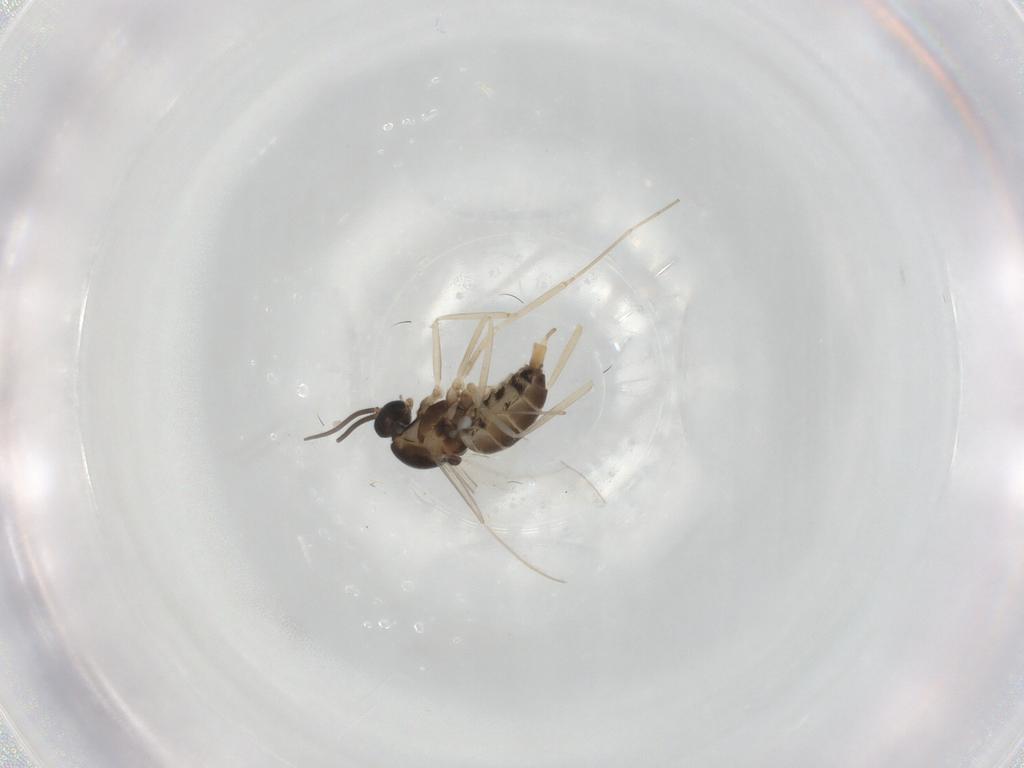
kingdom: Animalia
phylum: Arthropoda
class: Insecta
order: Diptera
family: Cecidomyiidae
